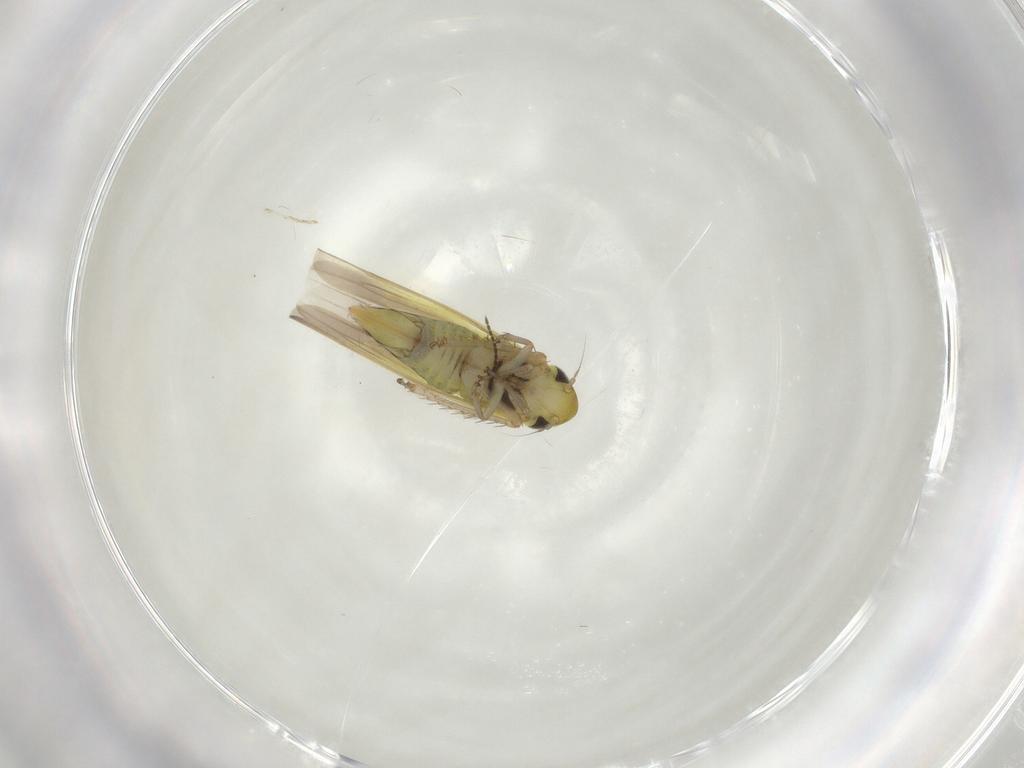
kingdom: Animalia
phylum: Arthropoda
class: Insecta
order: Hemiptera
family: Cicadellidae
